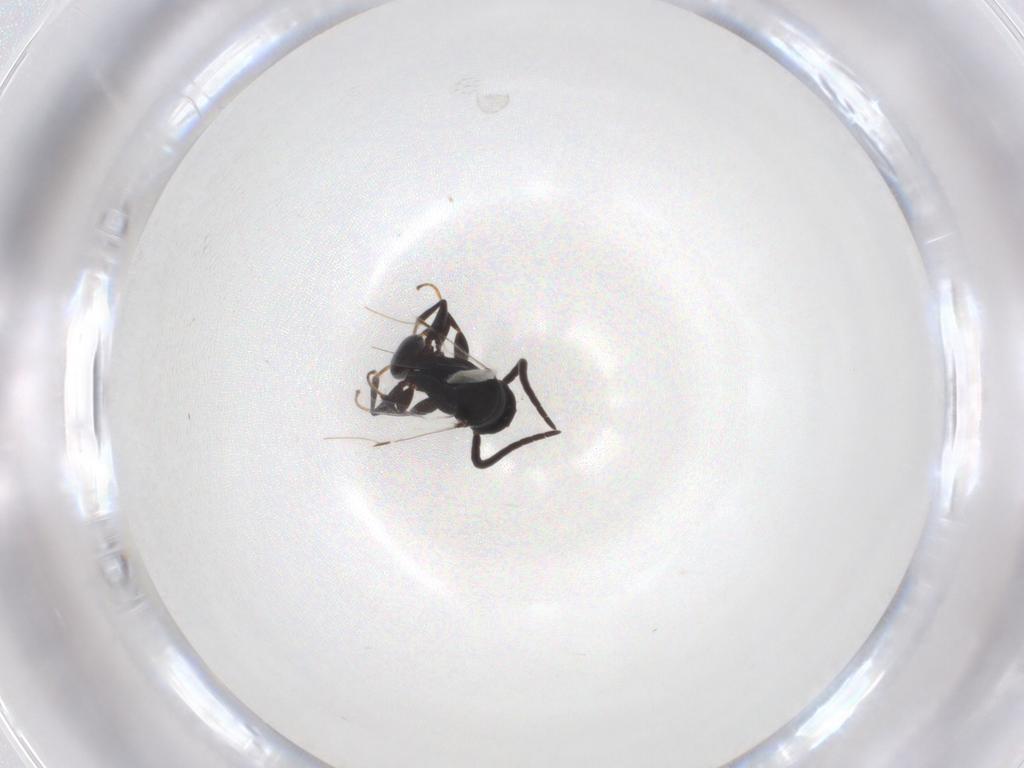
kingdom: Animalia
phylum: Arthropoda
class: Insecta
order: Hymenoptera
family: Bethylidae
